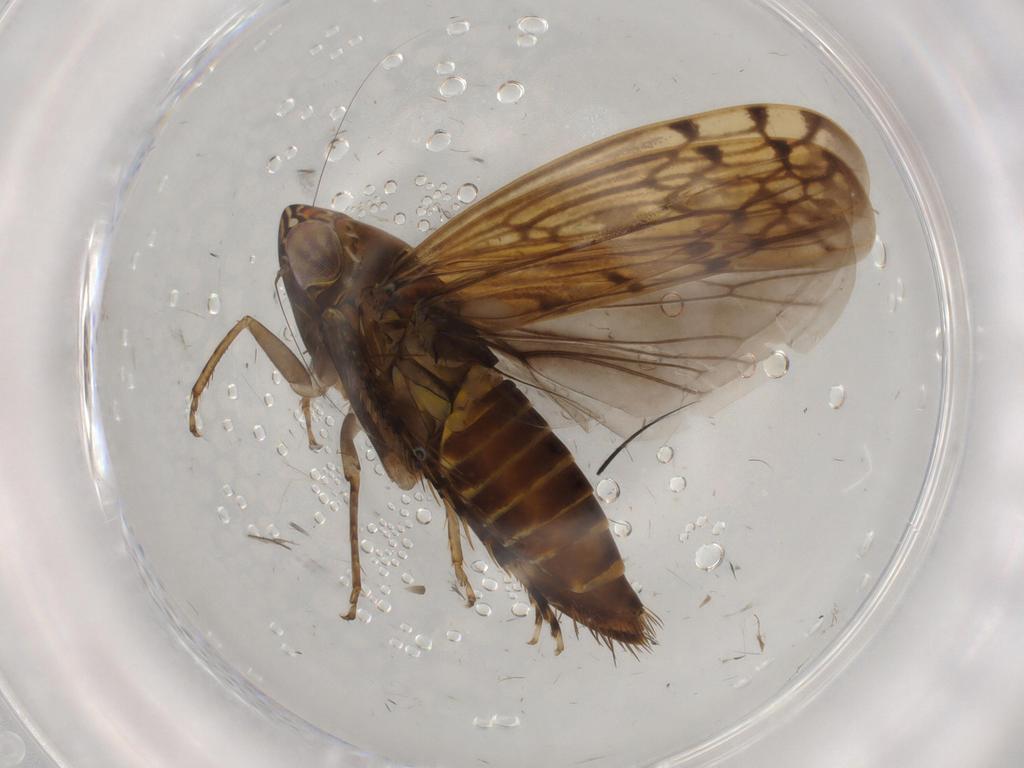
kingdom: Animalia
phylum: Arthropoda
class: Insecta
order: Hemiptera
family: Cicadellidae
